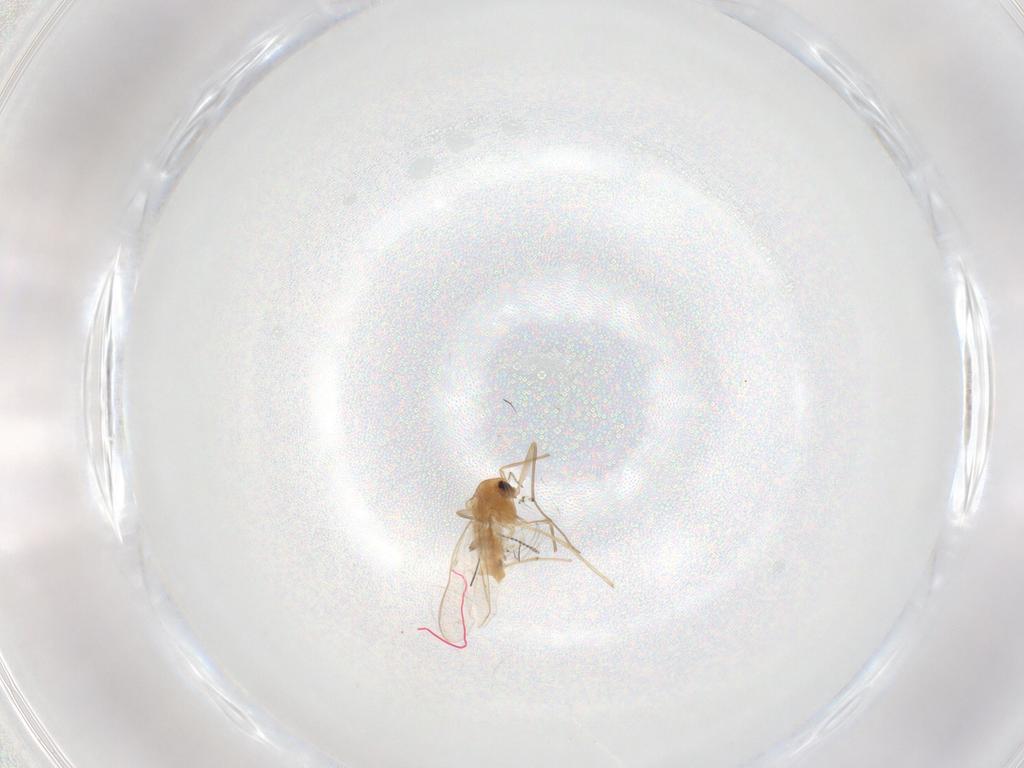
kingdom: Animalia
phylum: Arthropoda
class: Insecta
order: Diptera
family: Chironomidae
